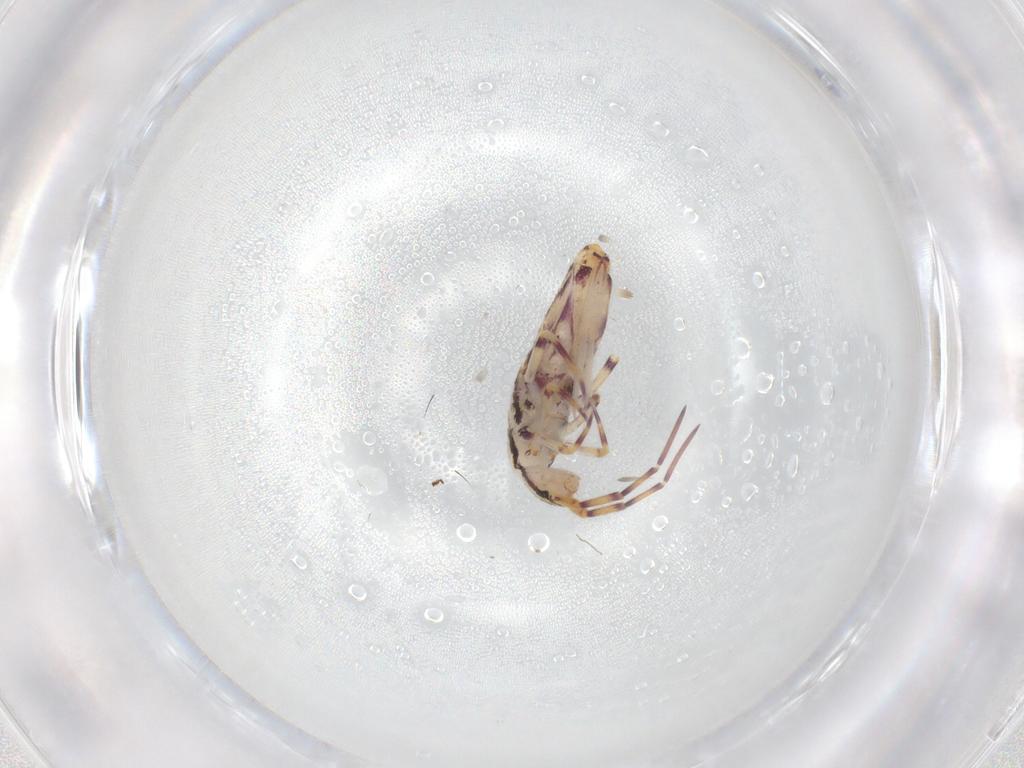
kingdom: Animalia
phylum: Arthropoda
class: Collembola
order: Entomobryomorpha
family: Entomobryidae
